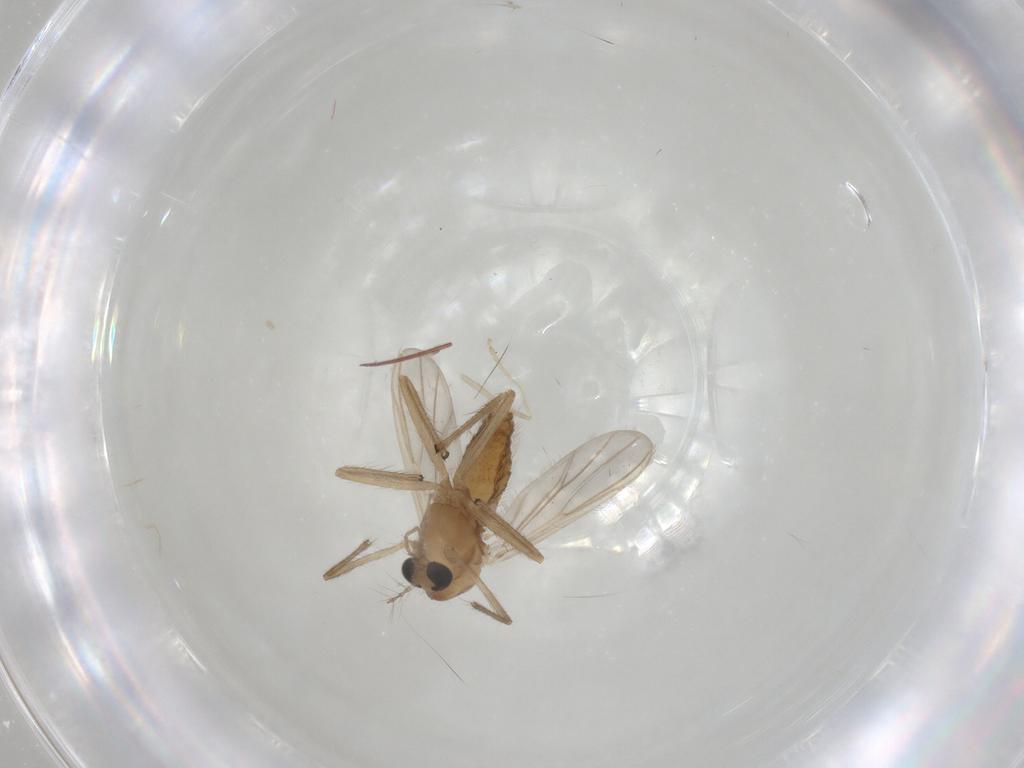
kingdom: Animalia
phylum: Arthropoda
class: Insecta
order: Diptera
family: Chironomidae
